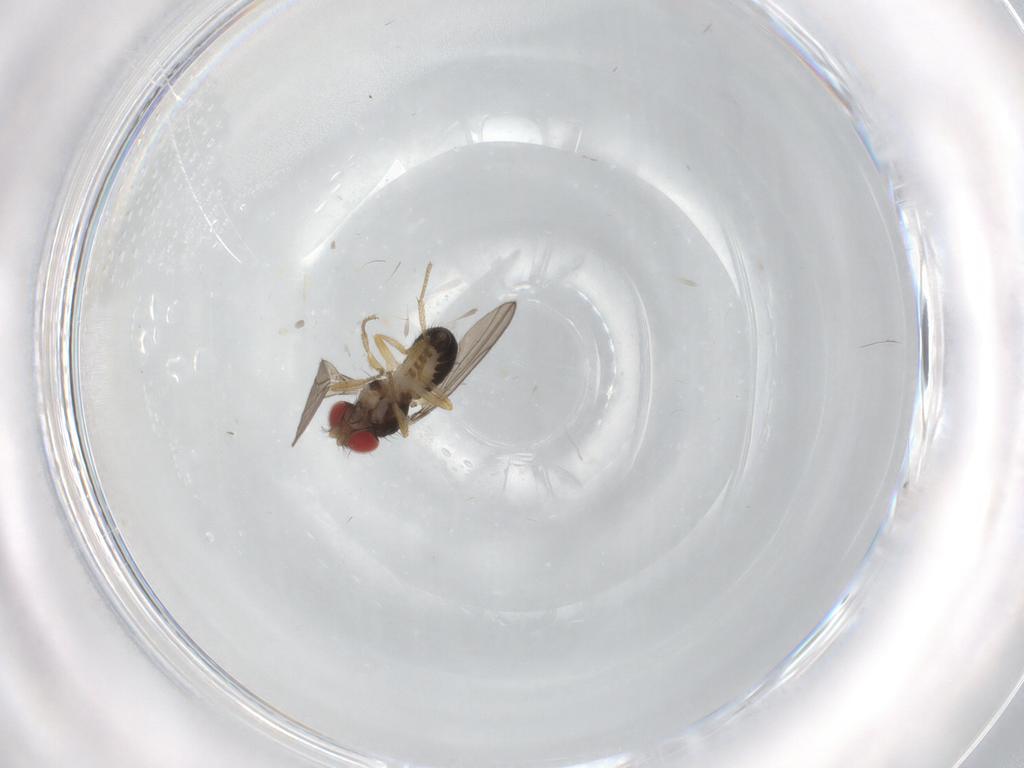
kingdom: Animalia
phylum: Arthropoda
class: Insecta
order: Diptera
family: Drosophilidae
